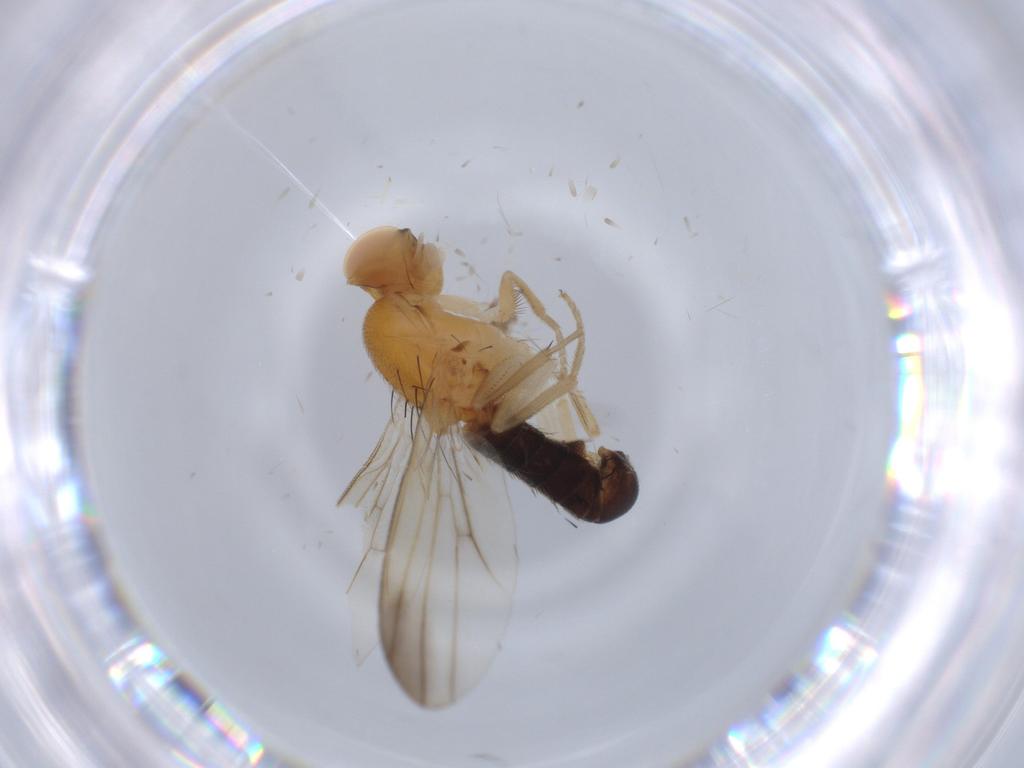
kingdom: Animalia
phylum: Arthropoda
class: Insecta
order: Diptera
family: Clusiidae
